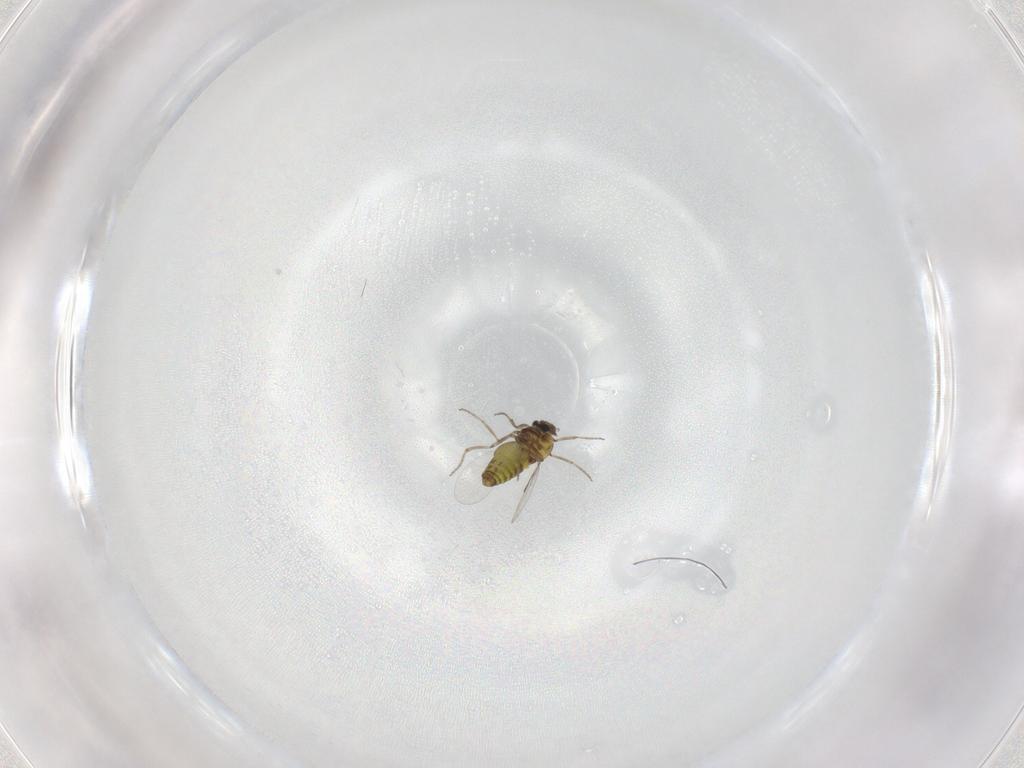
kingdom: Animalia
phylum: Arthropoda
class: Insecta
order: Diptera
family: Ceratopogonidae
